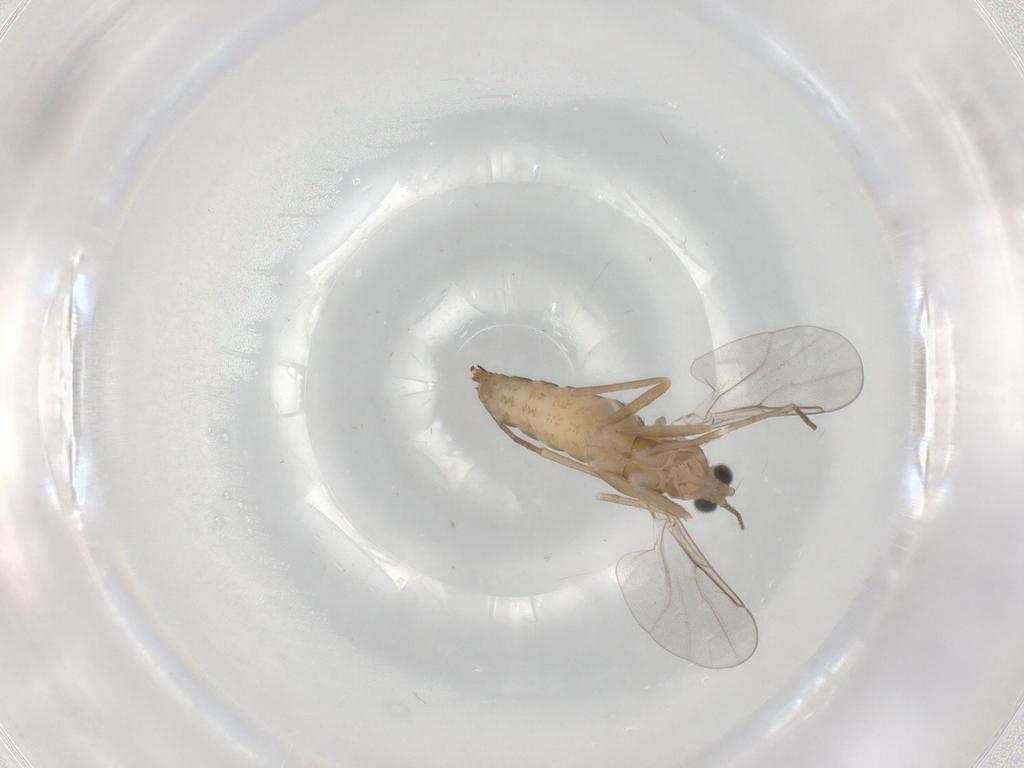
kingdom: Animalia
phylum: Arthropoda
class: Insecta
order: Diptera
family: Cecidomyiidae
